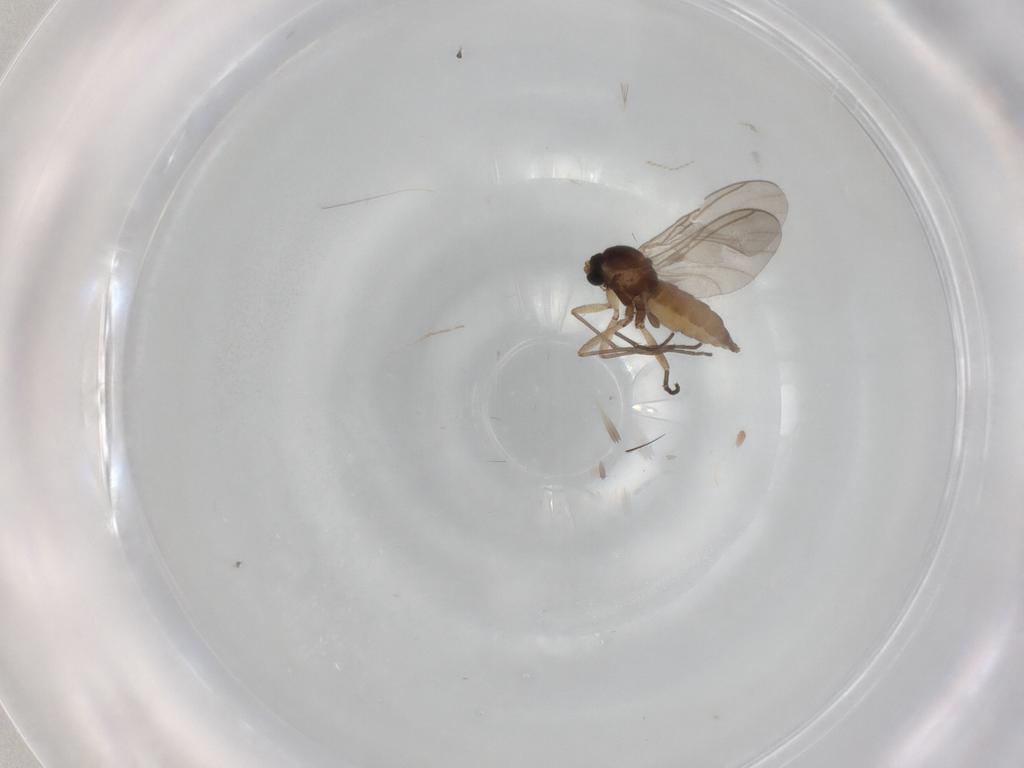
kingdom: Animalia
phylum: Arthropoda
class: Insecta
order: Diptera
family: Sciaridae
